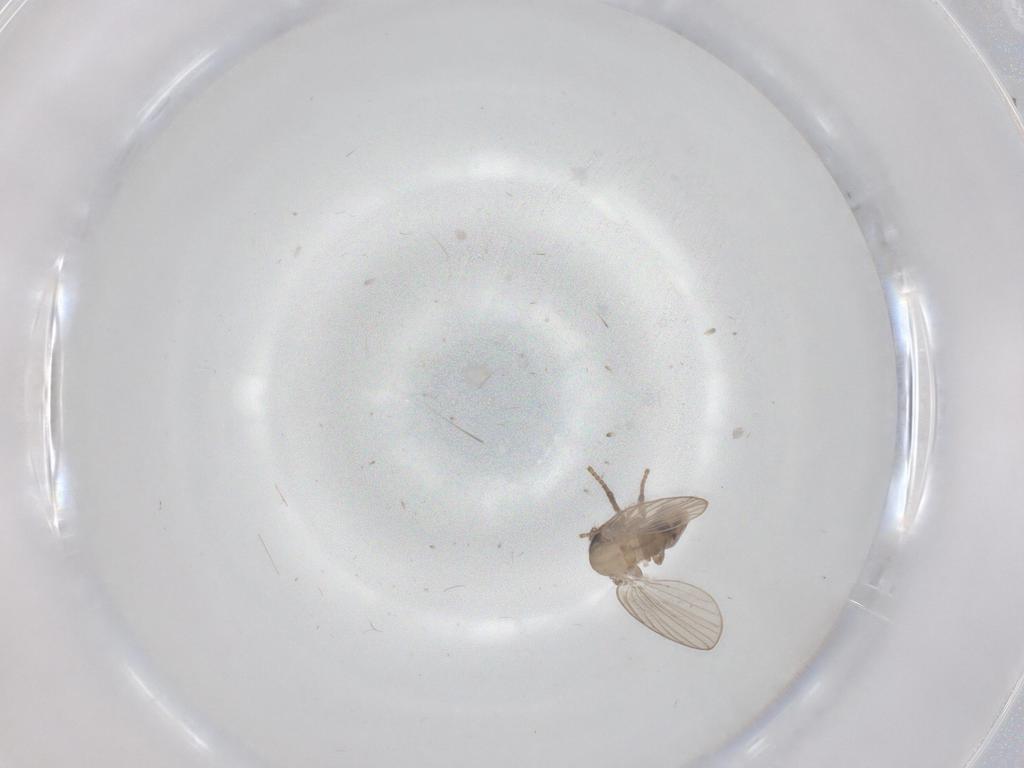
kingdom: Animalia
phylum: Arthropoda
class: Insecta
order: Diptera
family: Psychodidae
